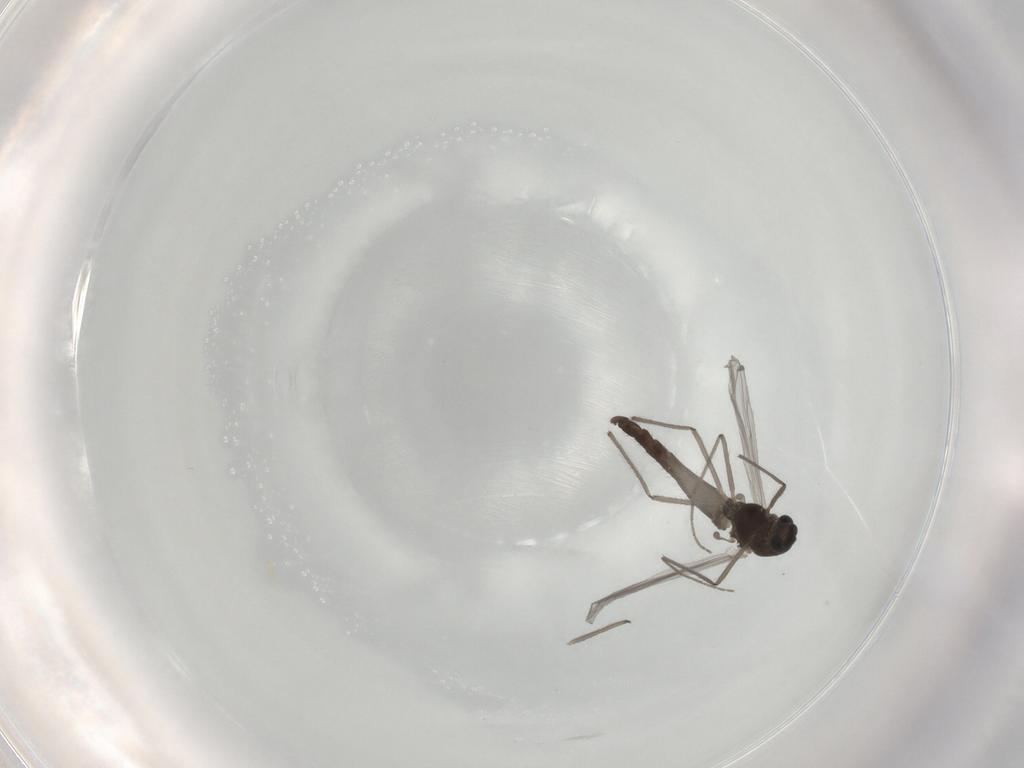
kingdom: Animalia
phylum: Arthropoda
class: Insecta
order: Diptera
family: Chironomidae
